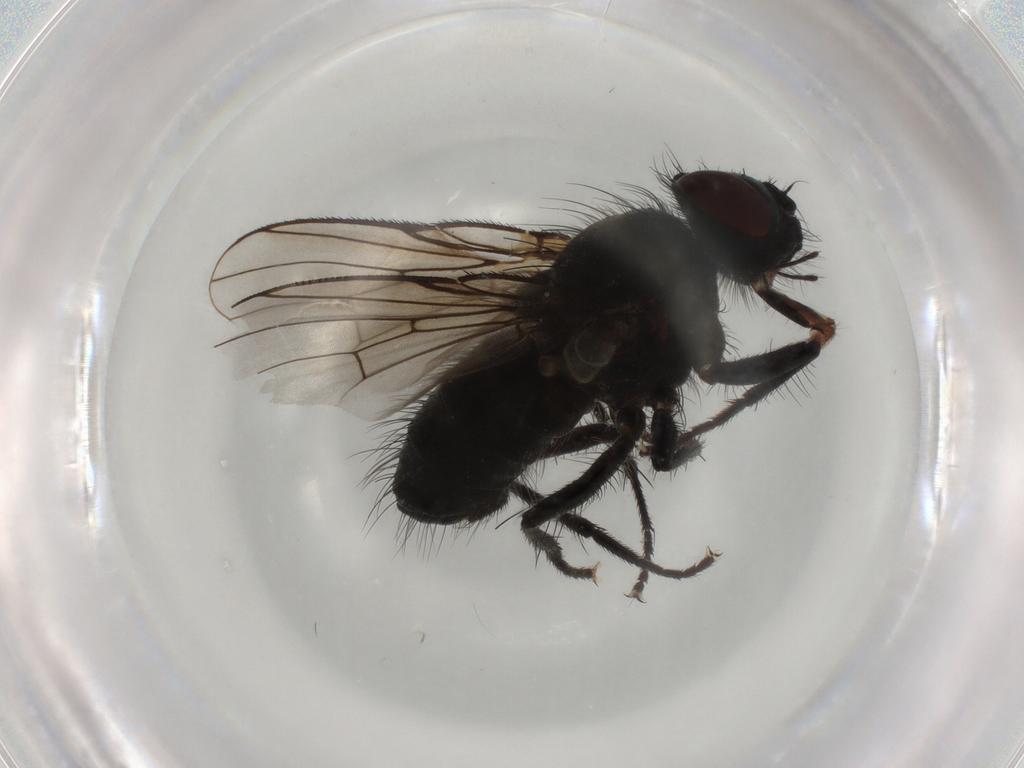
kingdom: Animalia
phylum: Arthropoda
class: Insecta
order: Diptera
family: Muscidae
